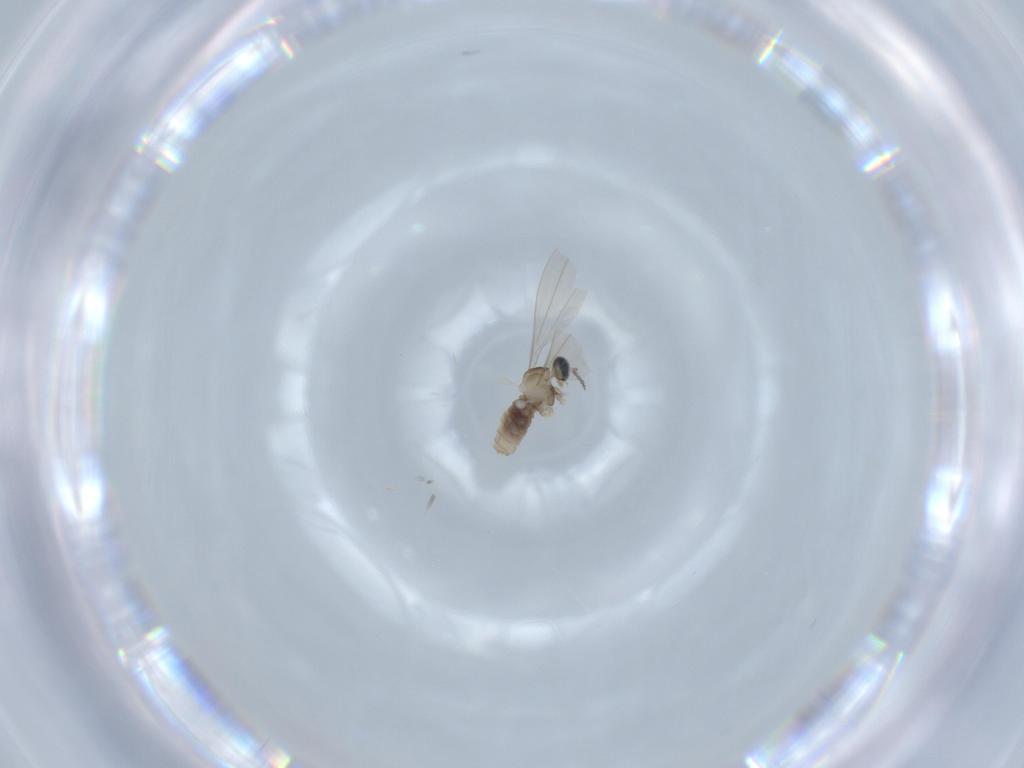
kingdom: Animalia
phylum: Arthropoda
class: Insecta
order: Diptera
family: Cecidomyiidae
